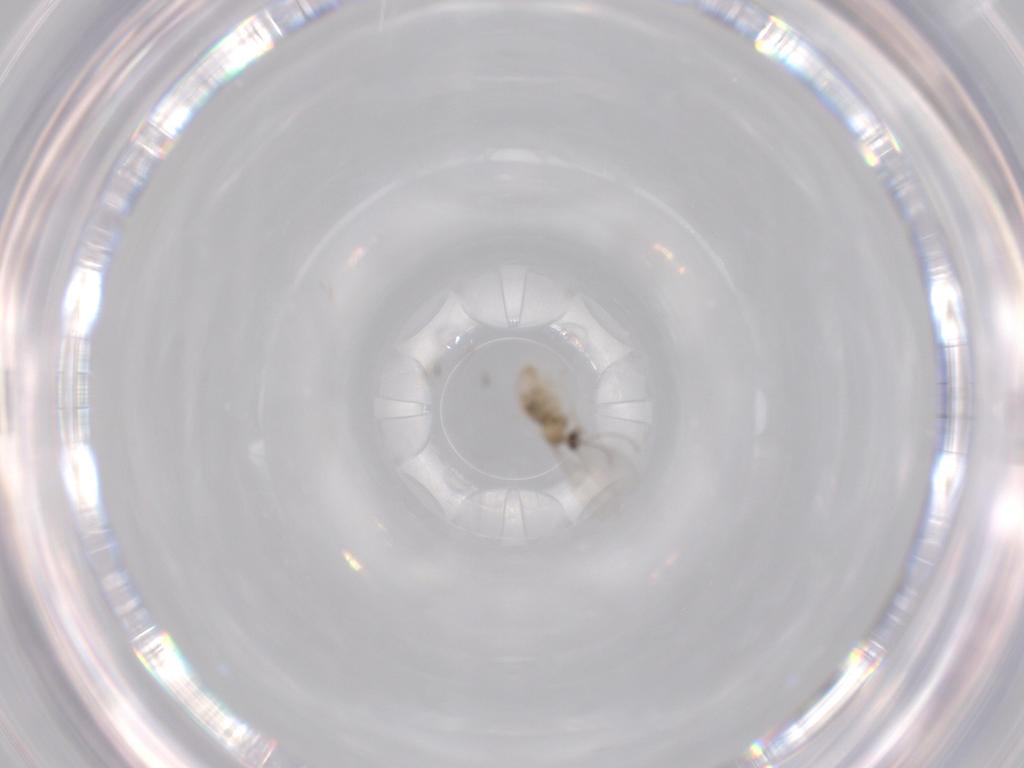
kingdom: Animalia
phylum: Arthropoda
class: Insecta
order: Diptera
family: Cecidomyiidae
